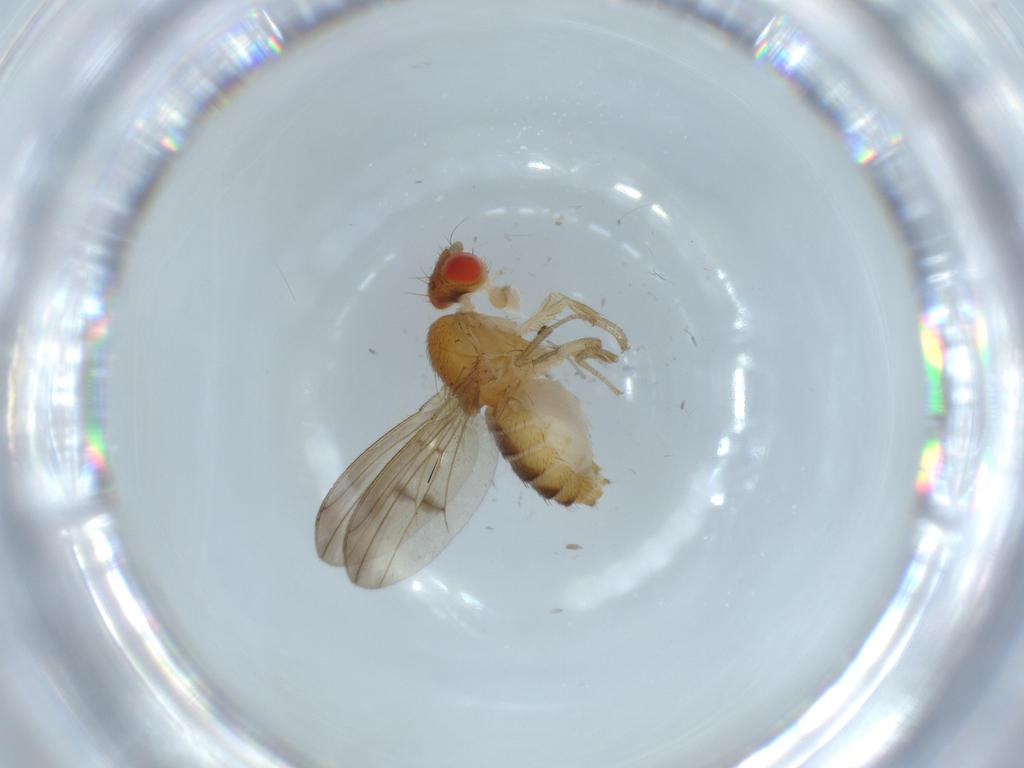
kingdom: Animalia
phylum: Arthropoda
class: Insecta
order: Diptera
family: Drosophilidae
